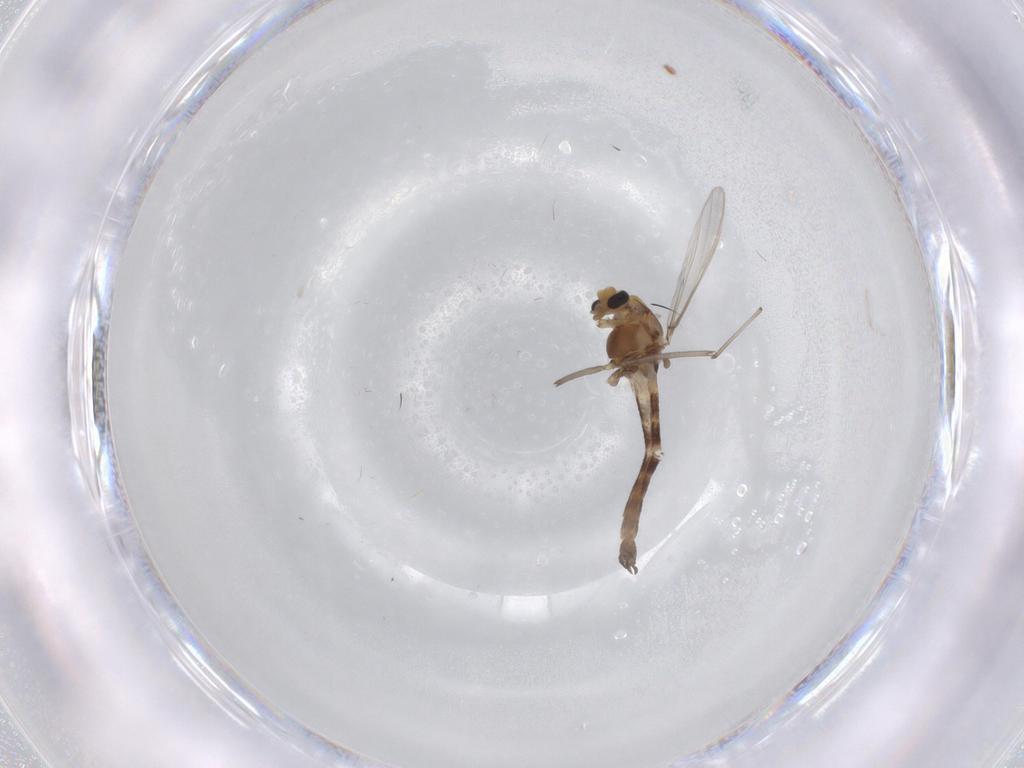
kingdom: Animalia
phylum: Arthropoda
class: Insecta
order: Diptera
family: Chironomidae
